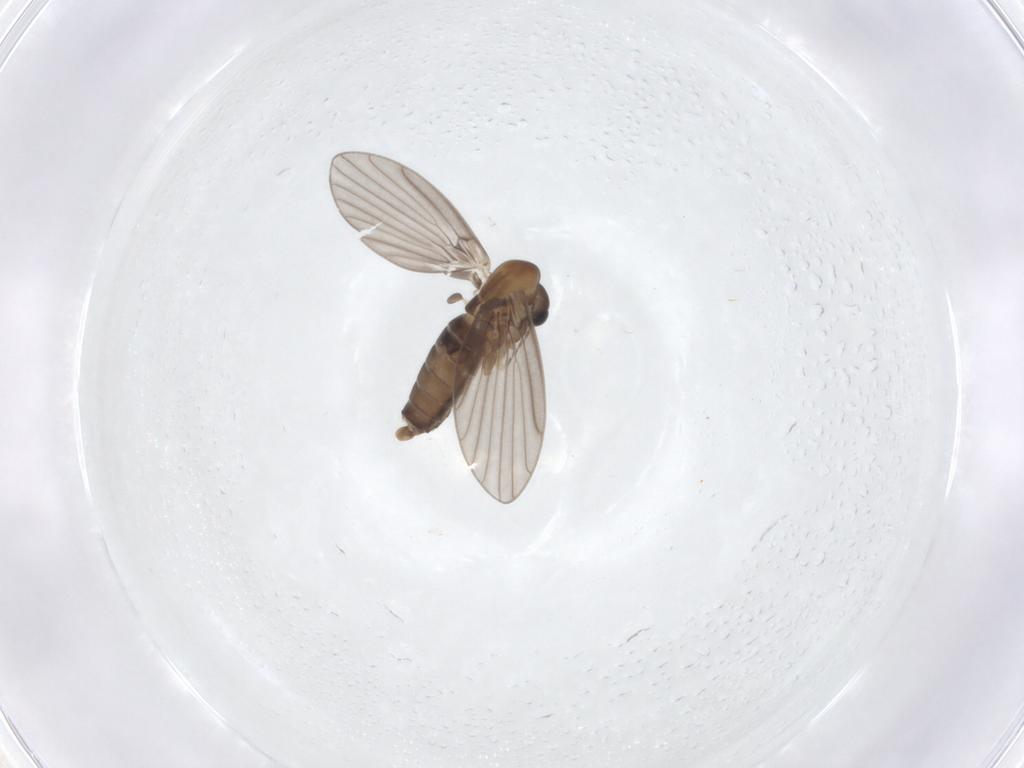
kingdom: Animalia
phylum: Arthropoda
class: Insecta
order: Diptera
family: Psychodidae
